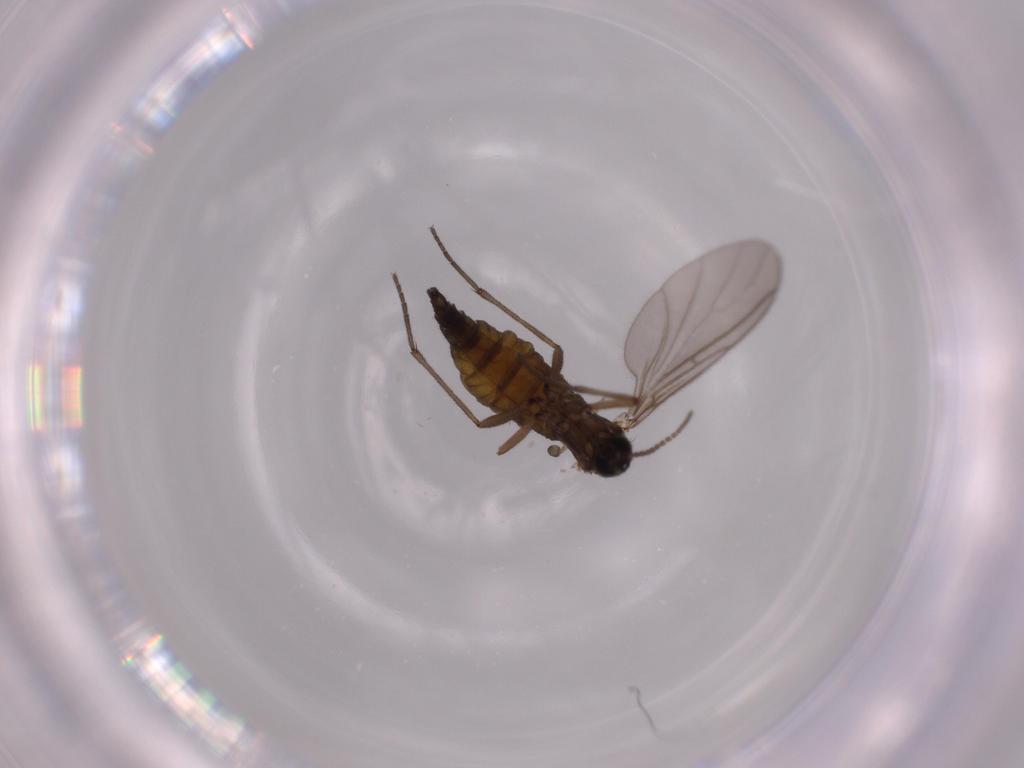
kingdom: Animalia
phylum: Arthropoda
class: Insecta
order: Diptera
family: Sciaridae
